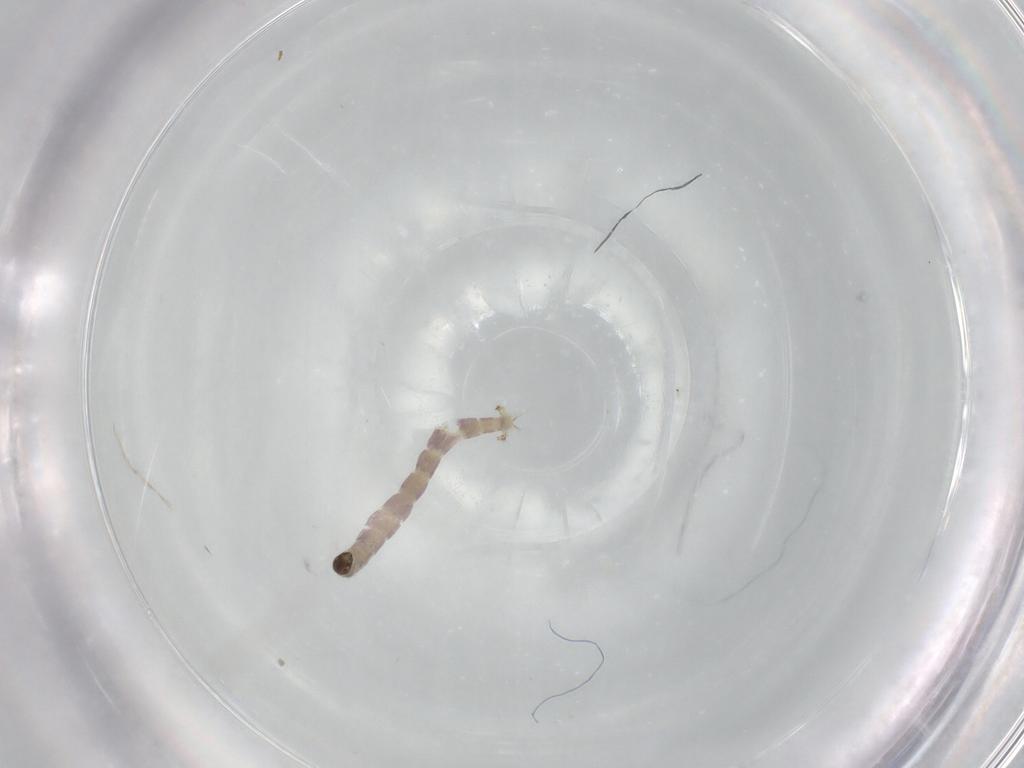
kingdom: Animalia
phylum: Arthropoda
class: Insecta
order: Diptera
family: Empididae
